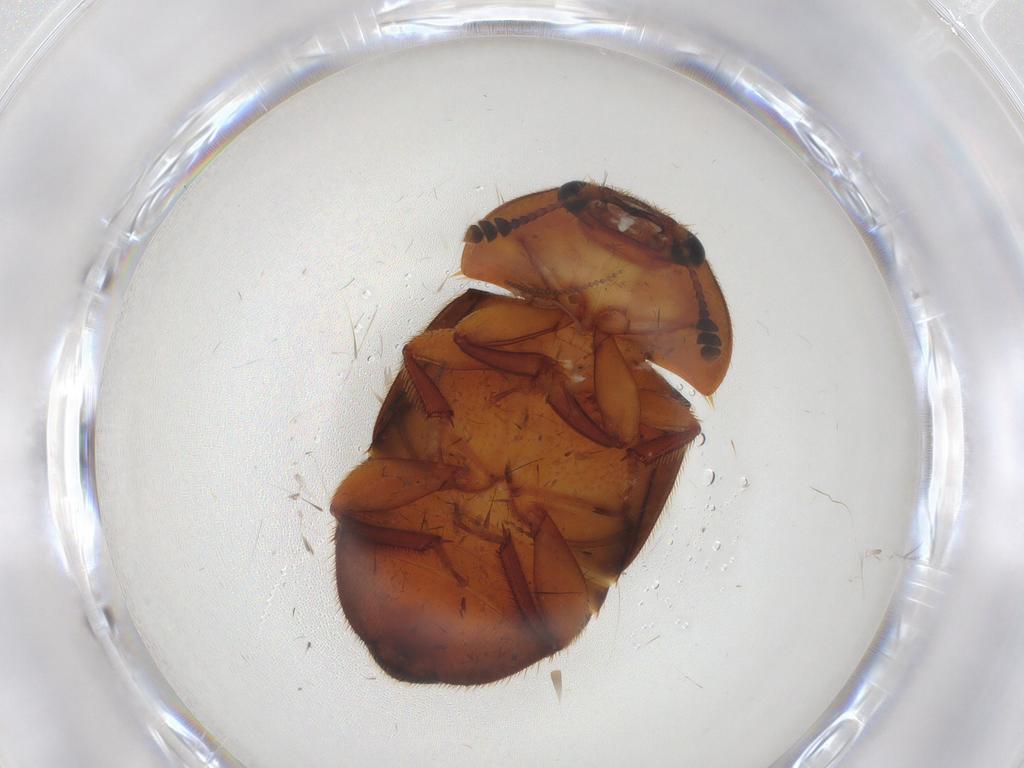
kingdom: Animalia
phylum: Arthropoda
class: Insecta
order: Coleoptera
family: Nitidulidae
